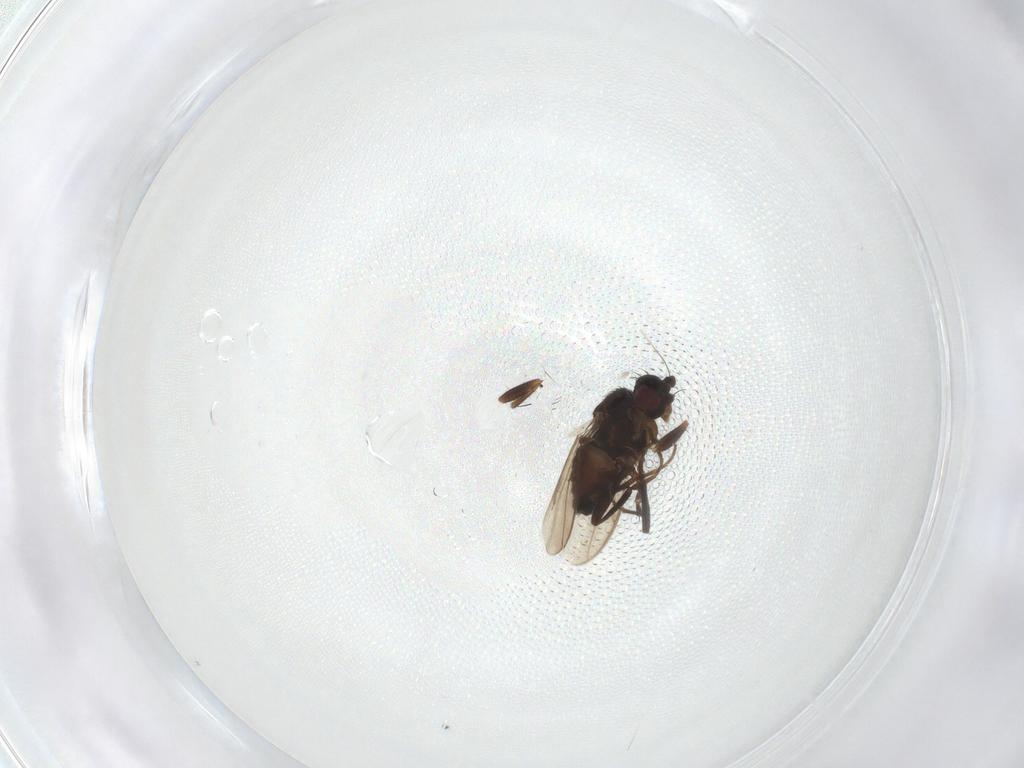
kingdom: Animalia
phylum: Arthropoda
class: Insecta
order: Diptera
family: Sphaeroceridae
